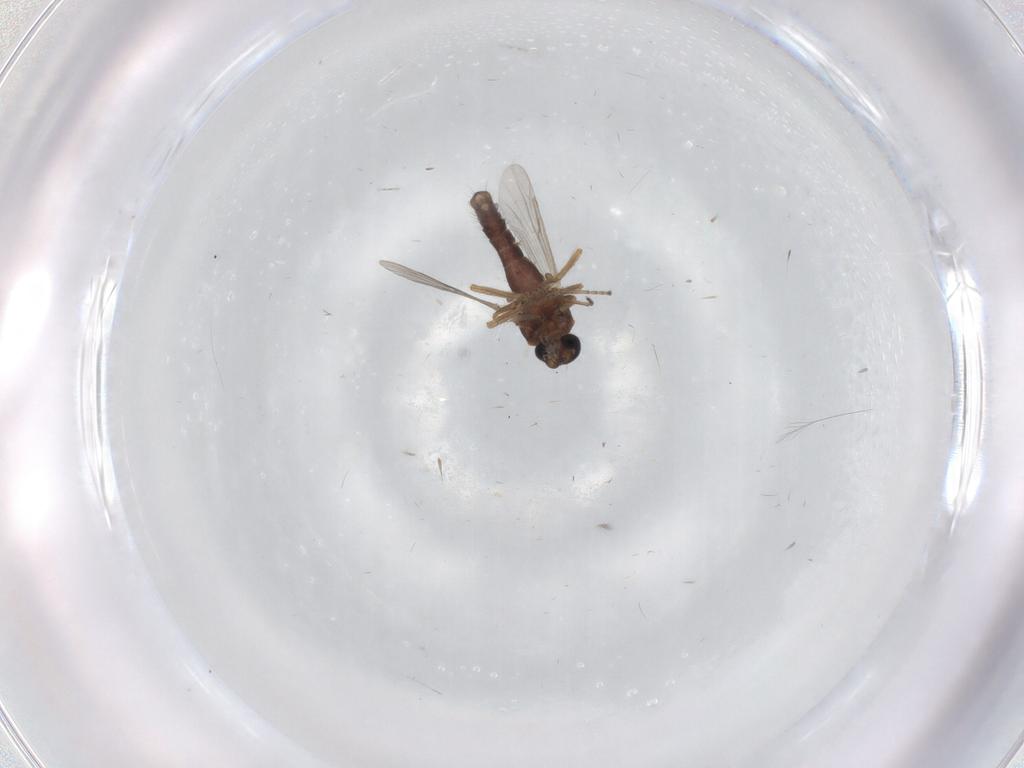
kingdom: Animalia
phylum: Arthropoda
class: Insecta
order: Diptera
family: Ceratopogonidae
